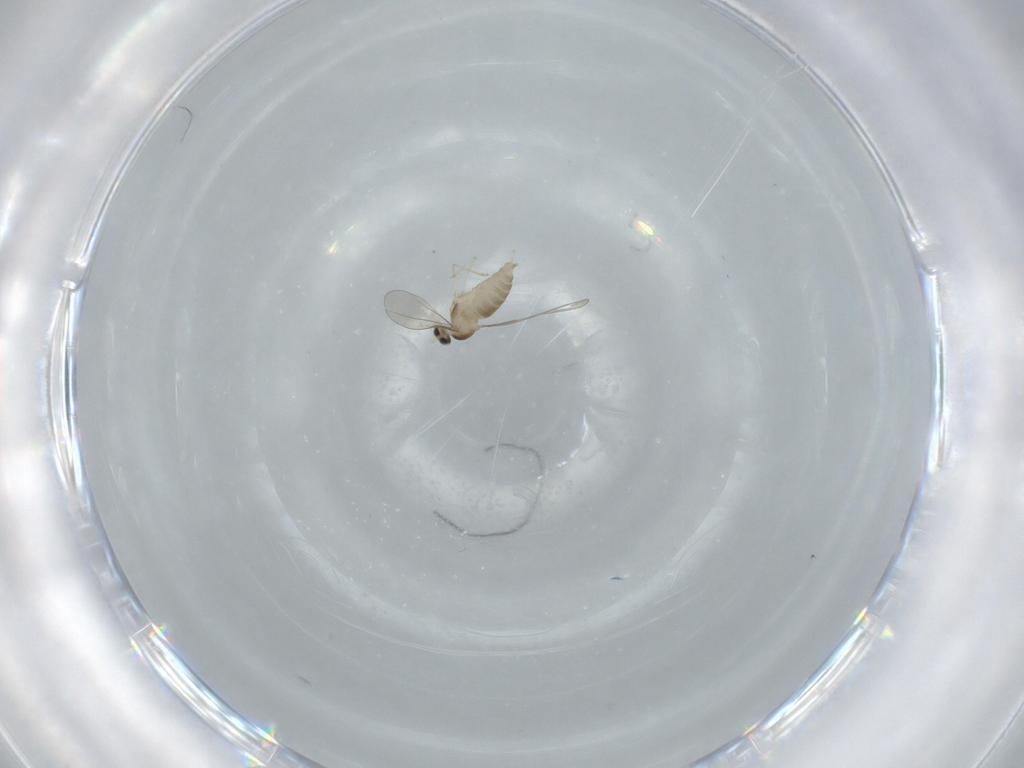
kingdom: Animalia
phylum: Arthropoda
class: Insecta
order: Diptera
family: Cecidomyiidae
